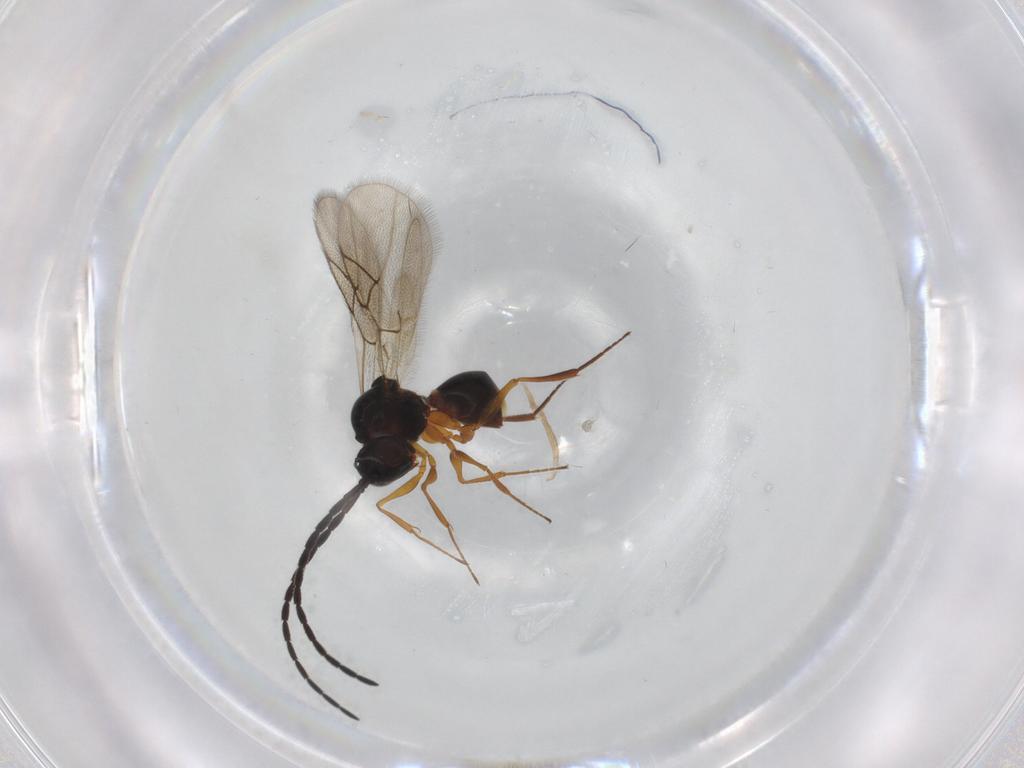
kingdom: Animalia
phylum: Arthropoda
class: Insecta
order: Hymenoptera
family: Figitidae
